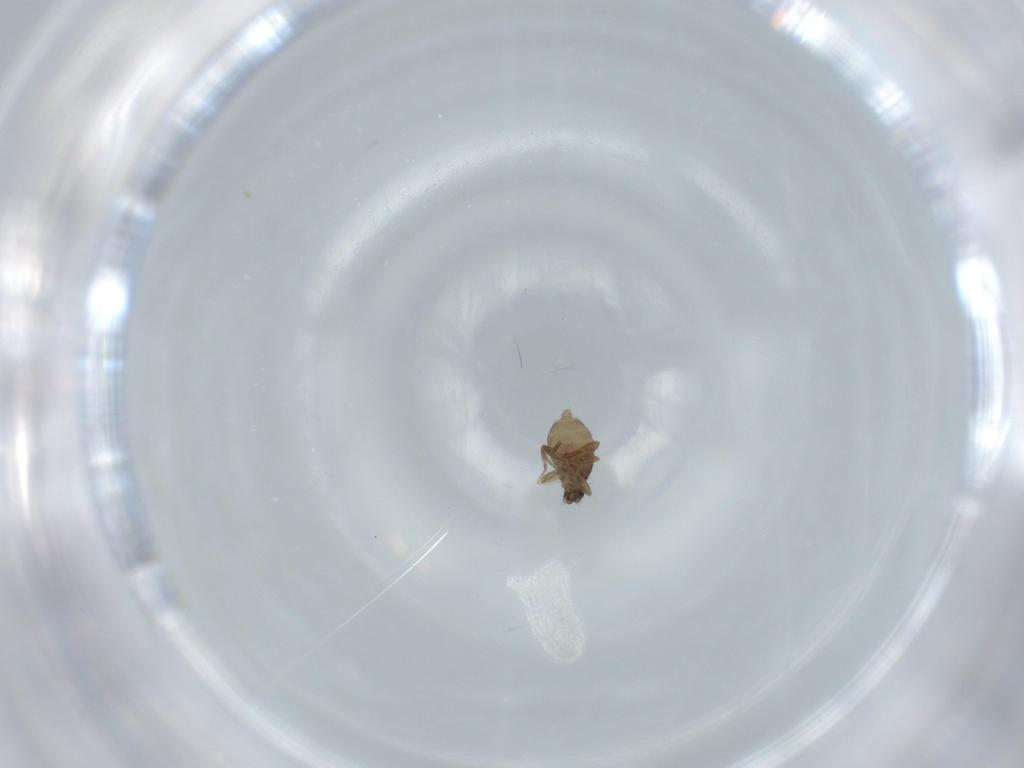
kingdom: Animalia
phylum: Arthropoda
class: Insecta
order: Diptera
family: Phoridae
